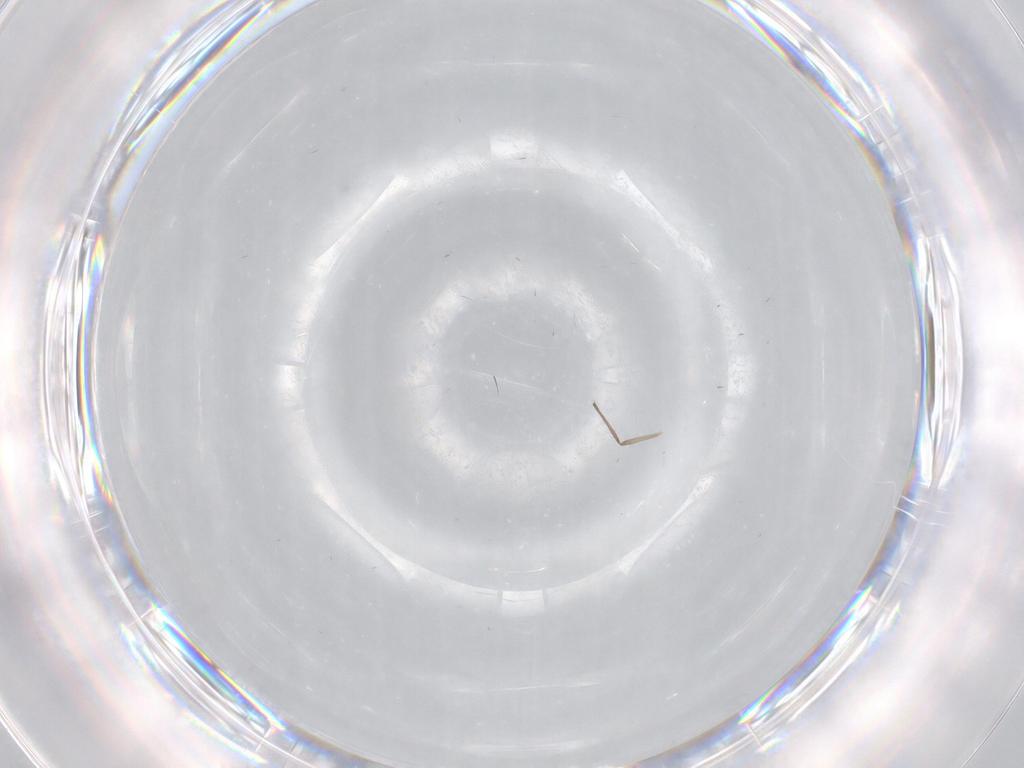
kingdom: Animalia
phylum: Arthropoda
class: Insecta
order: Diptera
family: Chironomidae
